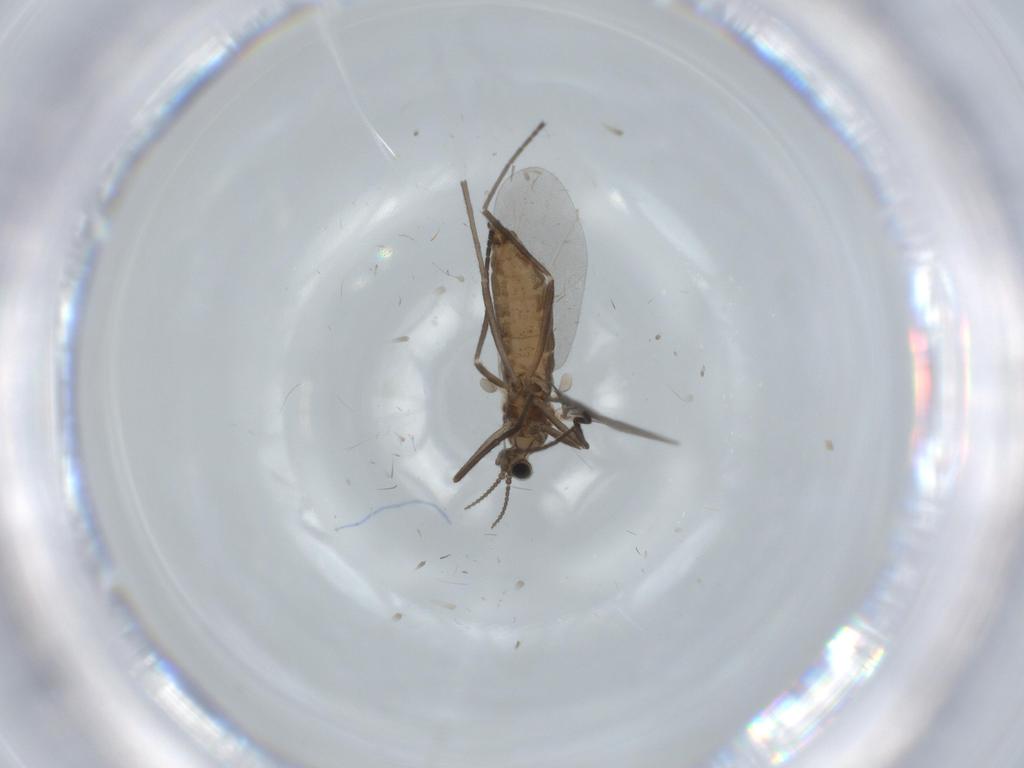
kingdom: Animalia
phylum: Arthropoda
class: Insecta
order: Diptera
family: Cecidomyiidae
